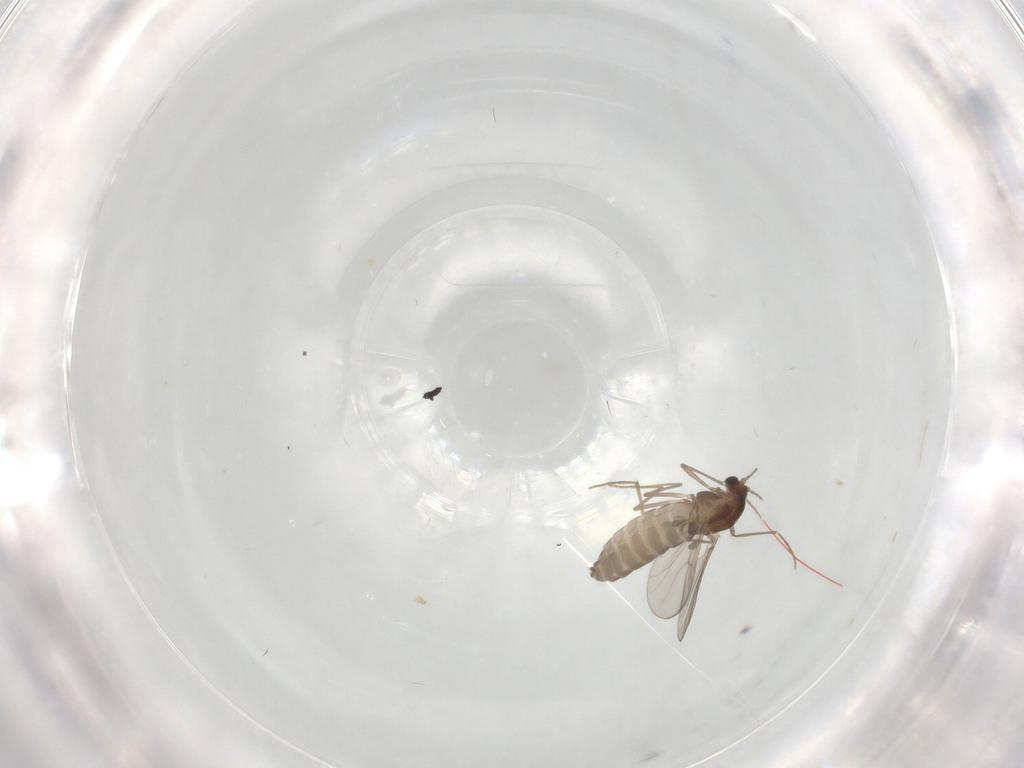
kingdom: Animalia
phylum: Arthropoda
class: Insecta
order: Diptera
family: Chironomidae
